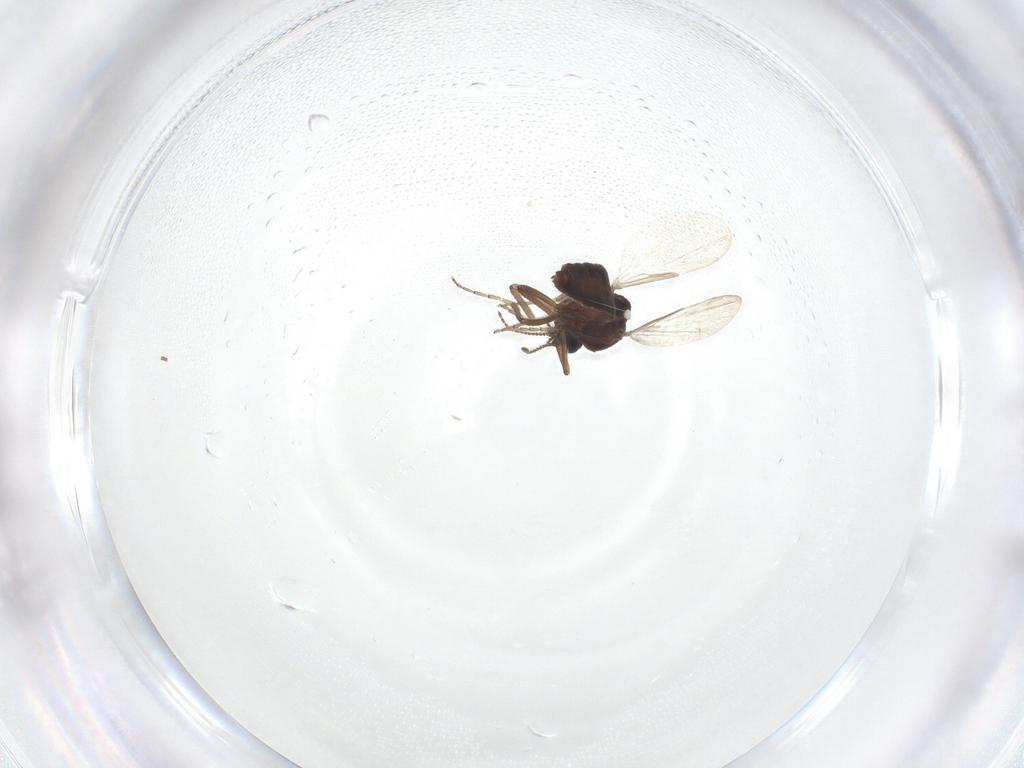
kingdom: Animalia
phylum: Arthropoda
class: Insecta
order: Diptera
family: Ceratopogonidae
